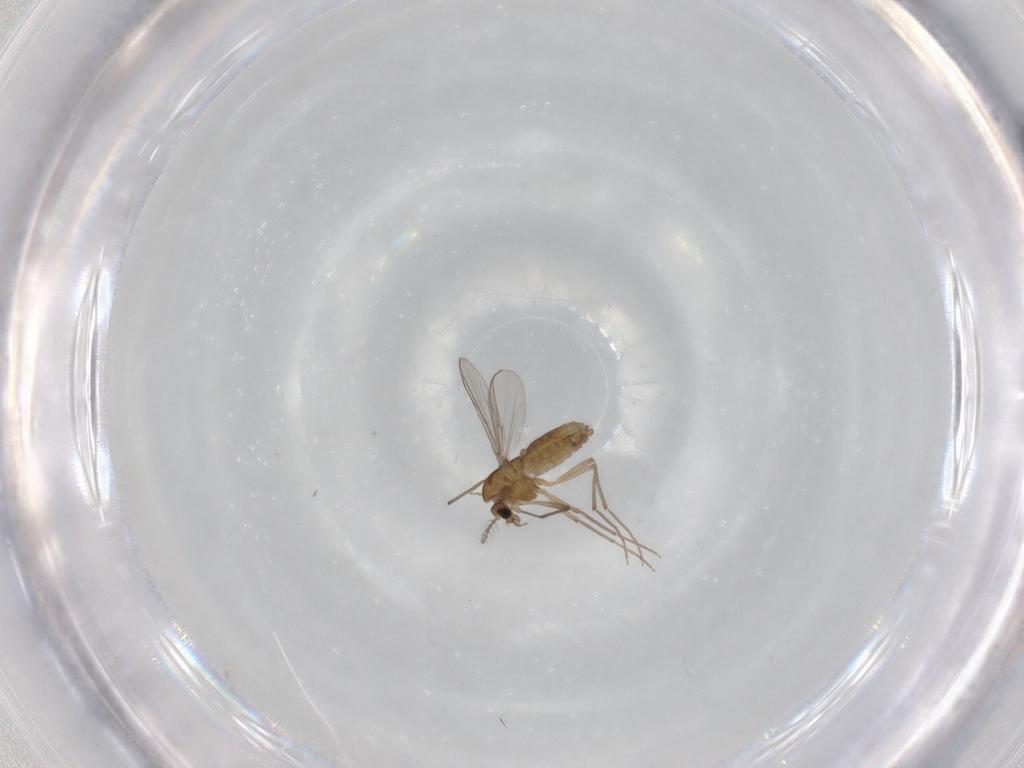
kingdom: Animalia
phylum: Arthropoda
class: Insecta
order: Diptera
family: Chironomidae
